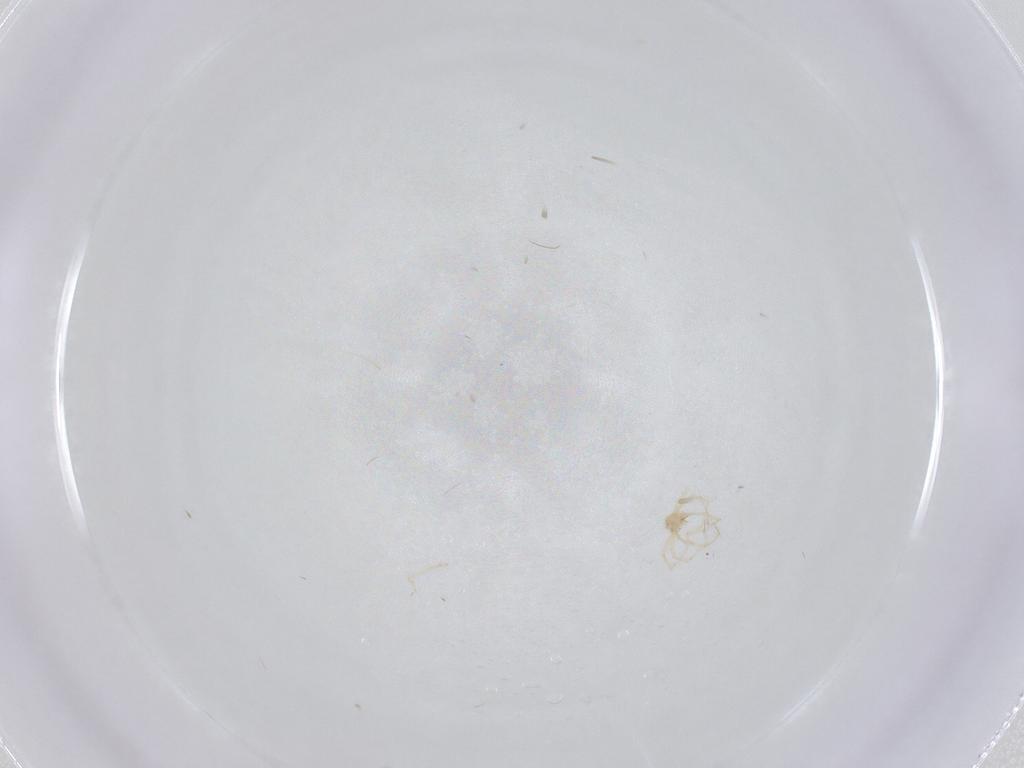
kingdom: Animalia
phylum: Arthropoda
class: Arachnida
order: Trombidiformes
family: Erythraeidae
